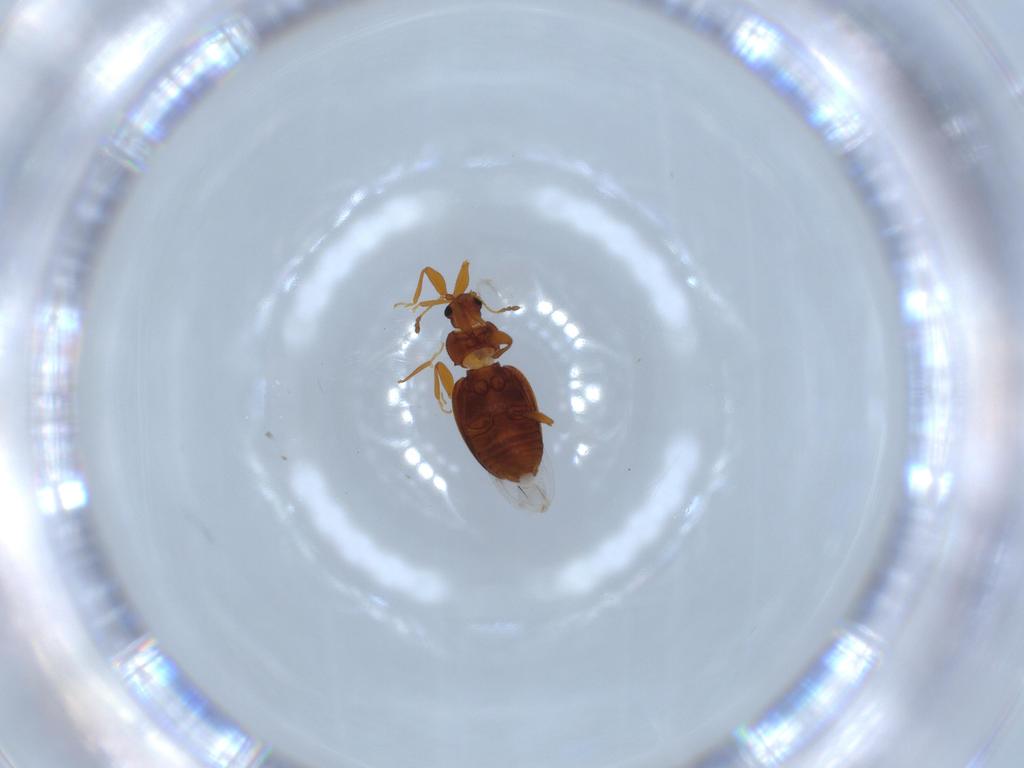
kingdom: Animalia
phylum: Arthropoda
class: Insecta
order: Coleoptera
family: Latridiidae
